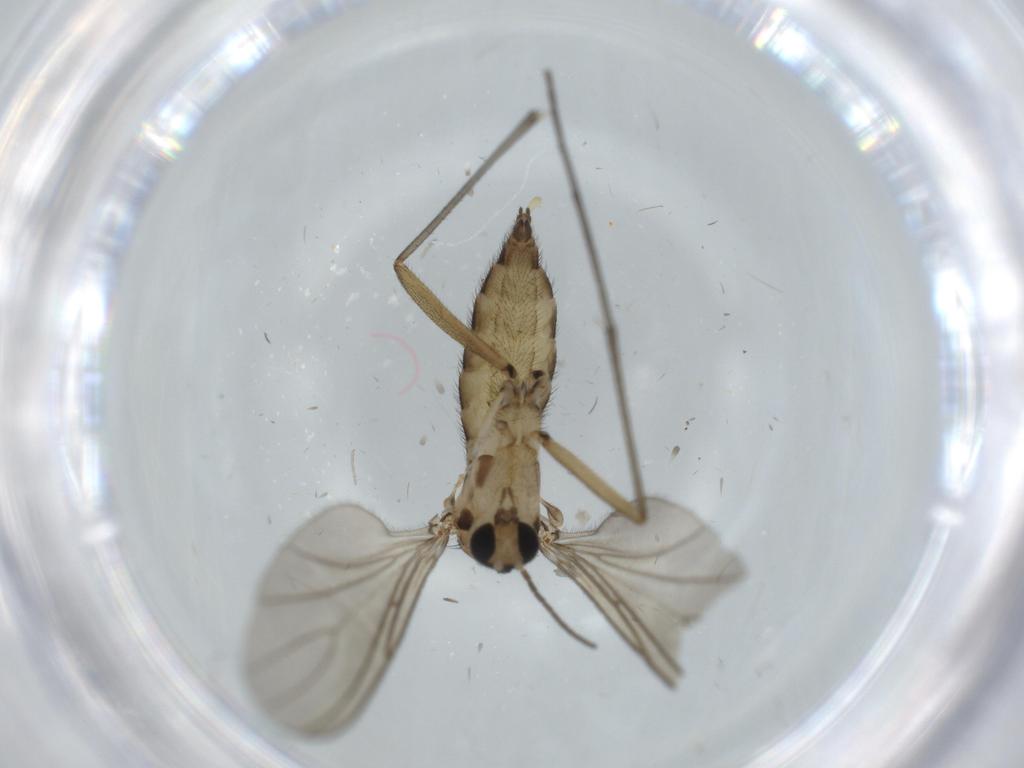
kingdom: Animalia
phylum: Arthropoda
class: Insecta
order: Diptera
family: Sciaridae
